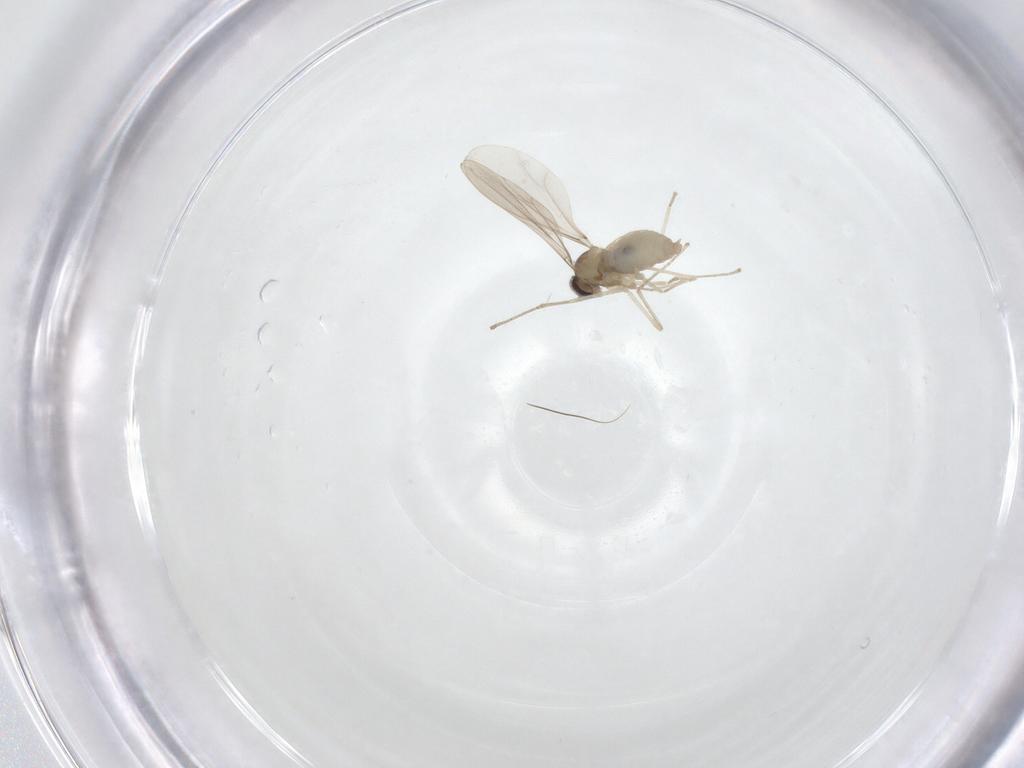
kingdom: Animalia
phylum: Arthropoda
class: Insecta
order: Diptera
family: Cecidomyiidae
